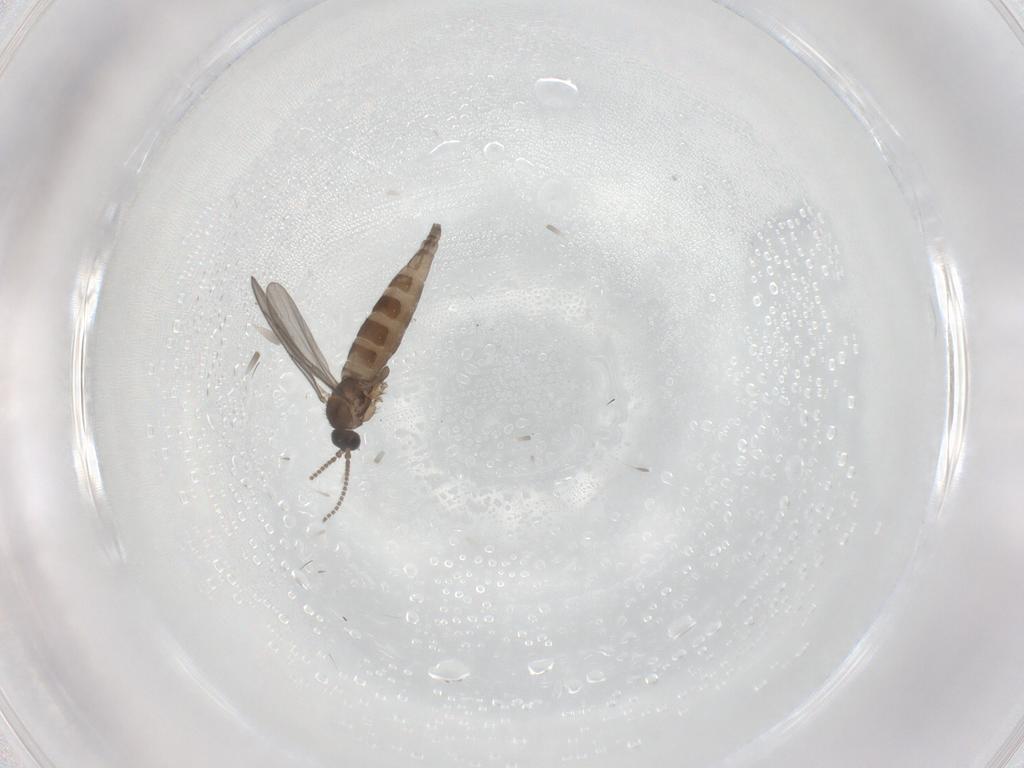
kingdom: Animalia
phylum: Arthropoda
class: Insecta
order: Diptera
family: Sciaridae
